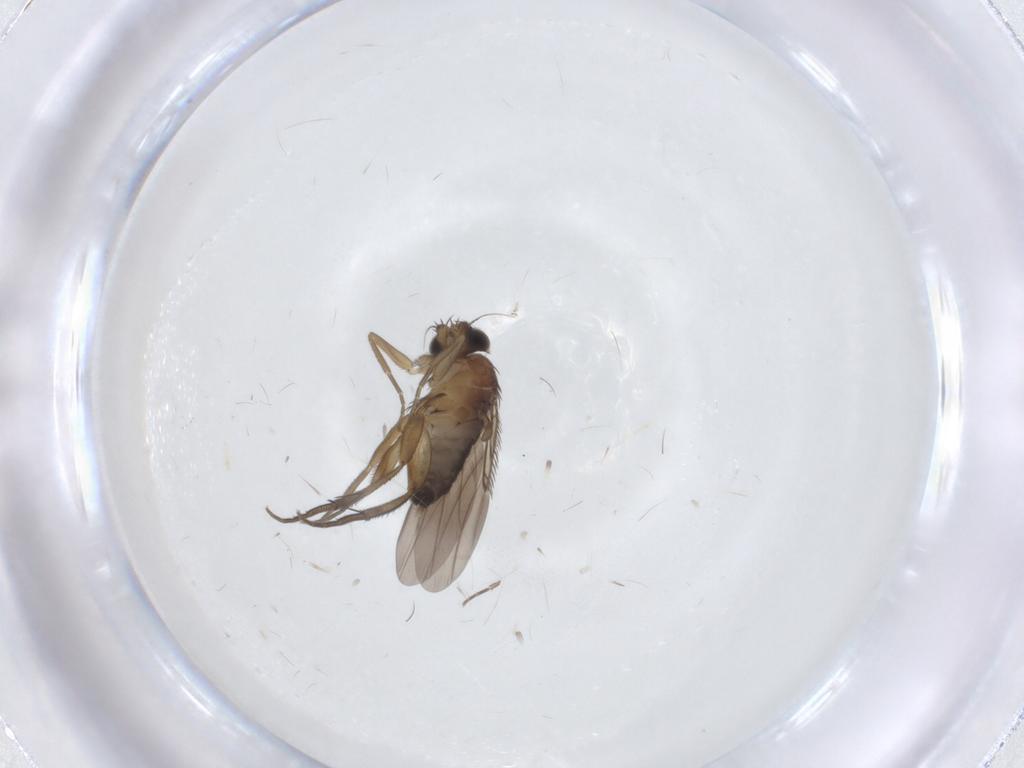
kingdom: Animalia
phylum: Arthropoda
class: Insecta
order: Diptera
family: Phoridae
